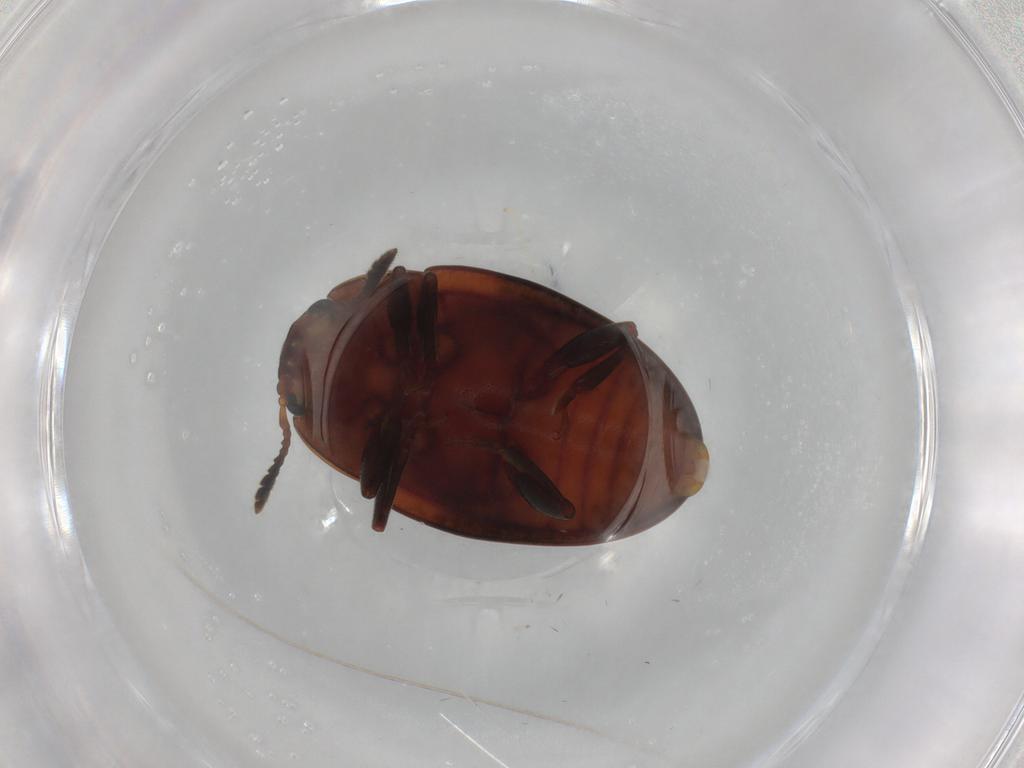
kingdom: Animalia
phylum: Arthropoda
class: Insecta
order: Coleoptera
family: Erotylidae
